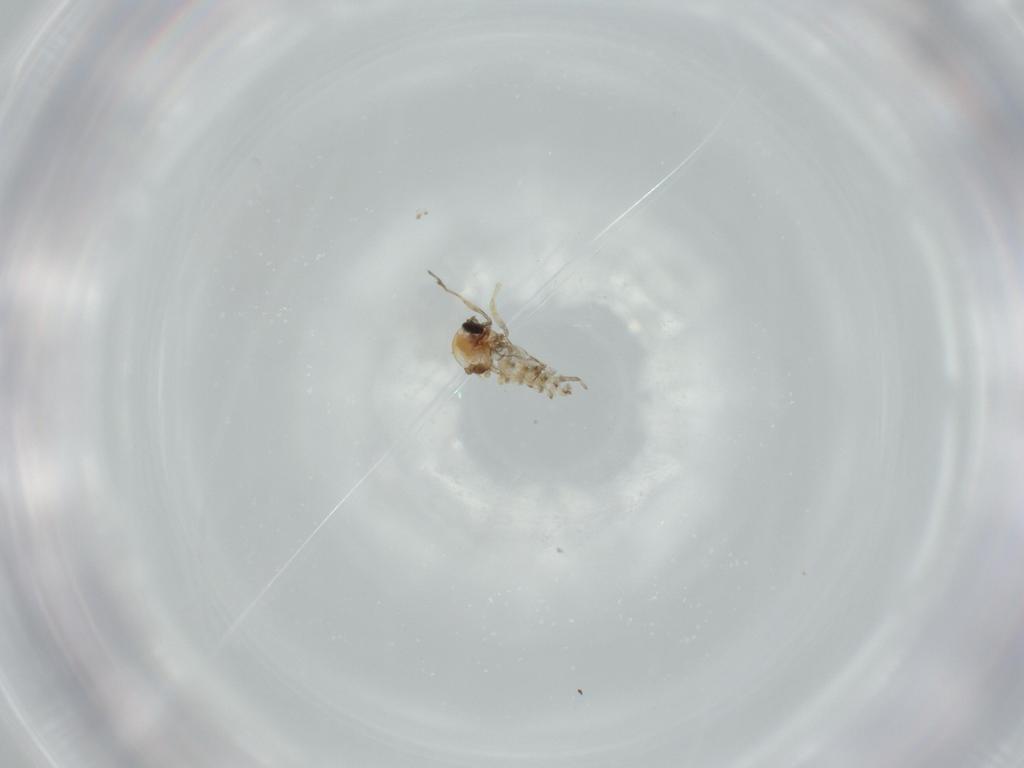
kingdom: Animalia
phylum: Arthropoda
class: Insecta
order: Diptera
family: Ceratopogonidae
